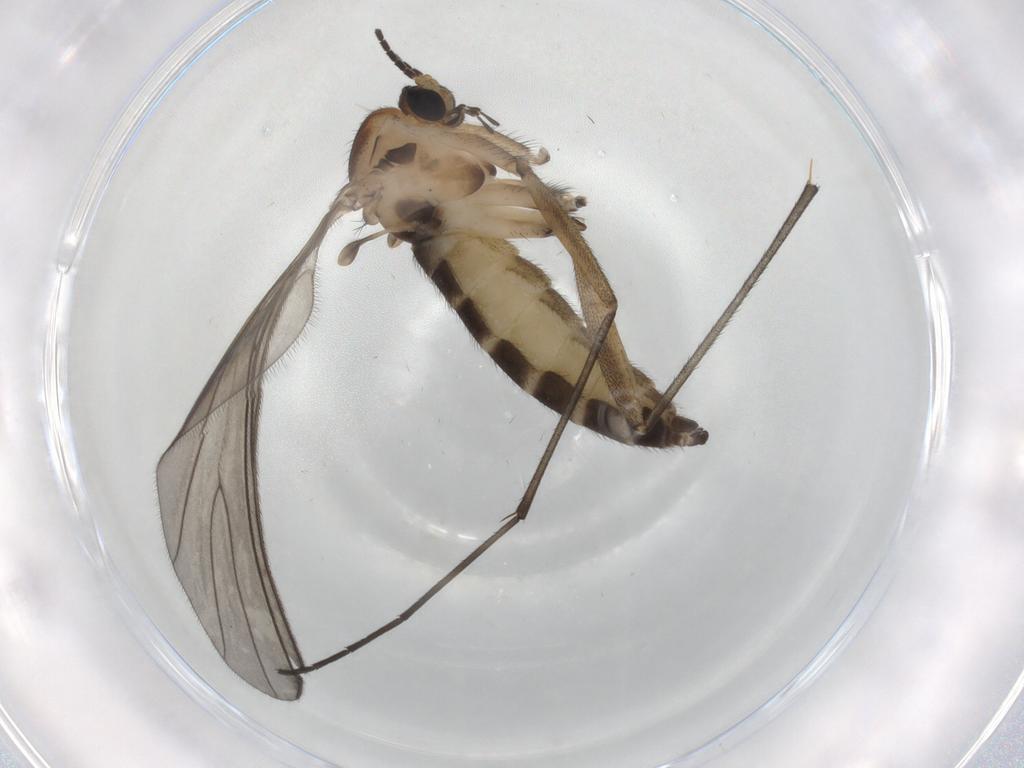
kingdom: Animalia
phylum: Arthropoda
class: Insecta
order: Diptera
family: Sciaridae
